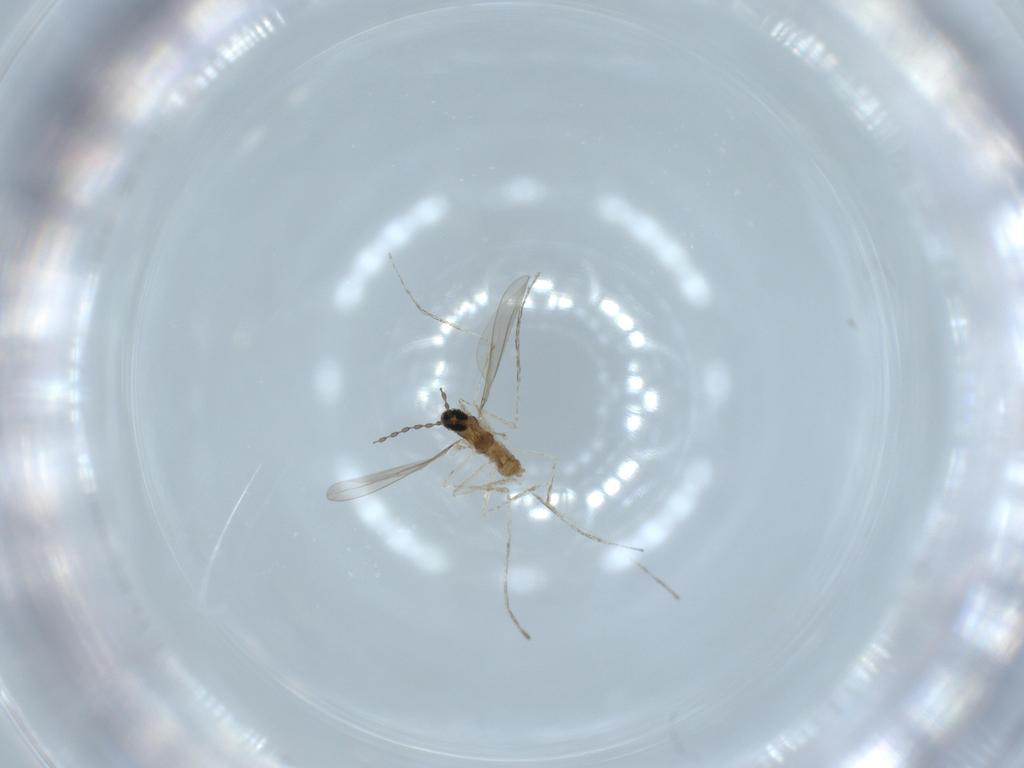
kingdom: Animalia
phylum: Arthropoda
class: Insecta
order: Diptera
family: Cecidomyiidae
